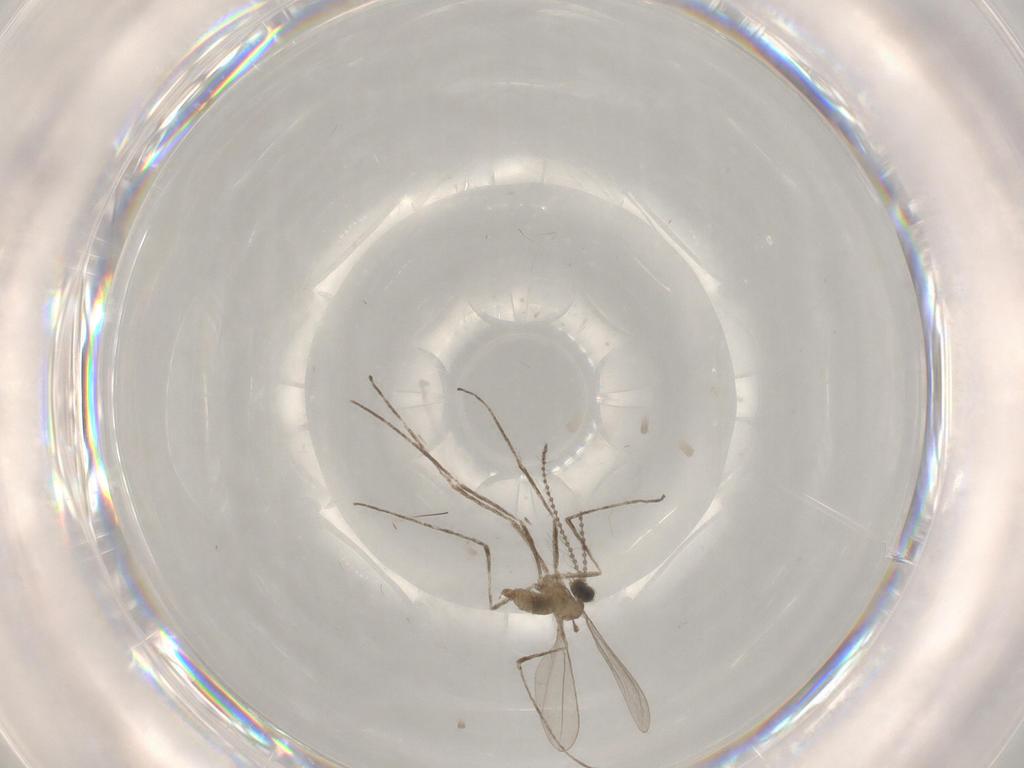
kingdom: Animalia
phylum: Arthropoda
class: Insecta
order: Diptera
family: Cecidomyiidae
